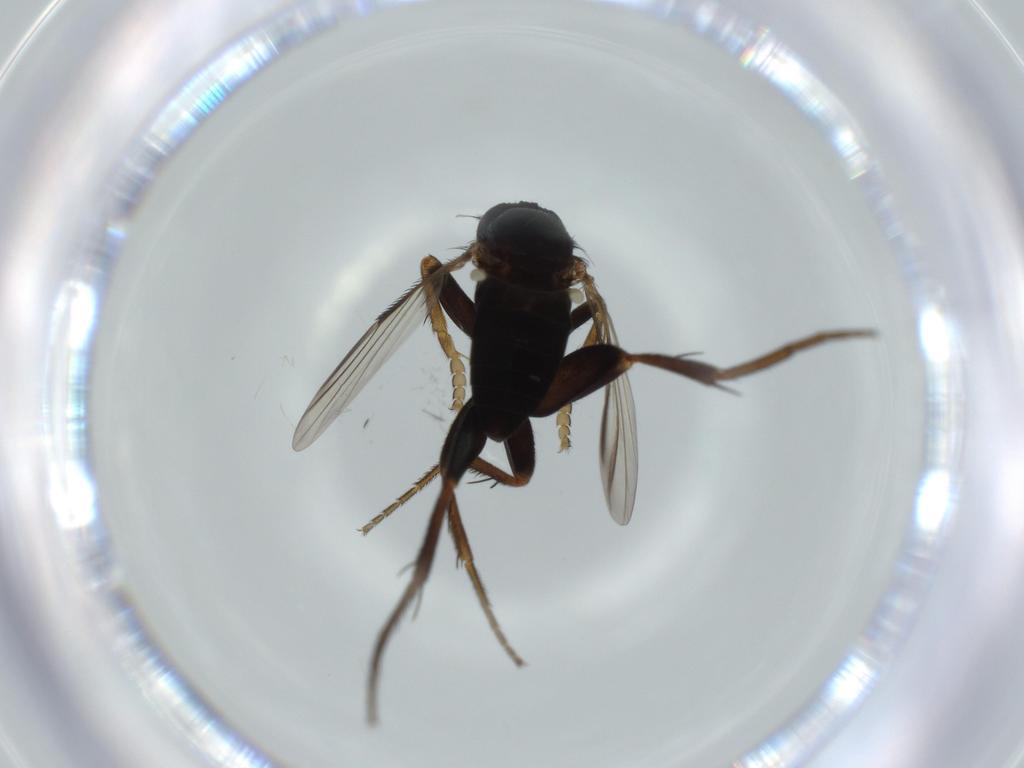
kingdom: Animalia
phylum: Arthropoda
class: Insecta
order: Diptera
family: Phoridae
